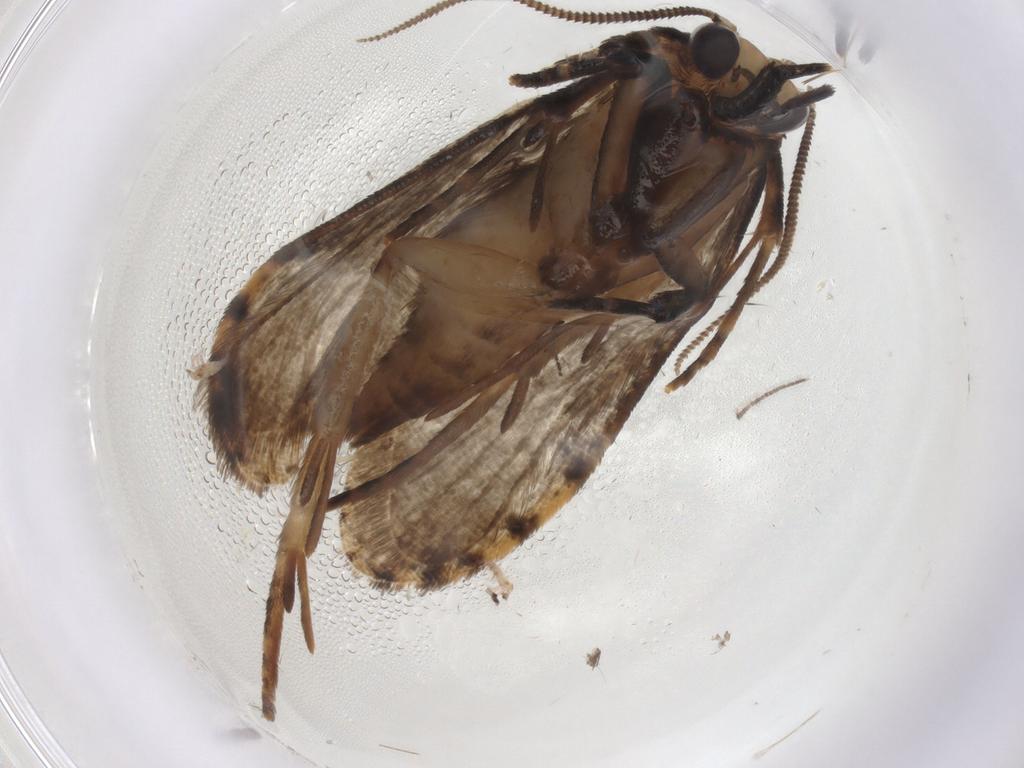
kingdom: Animalia
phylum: Arthropoda
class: Insecta
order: Lepidoptera
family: Tineidae
